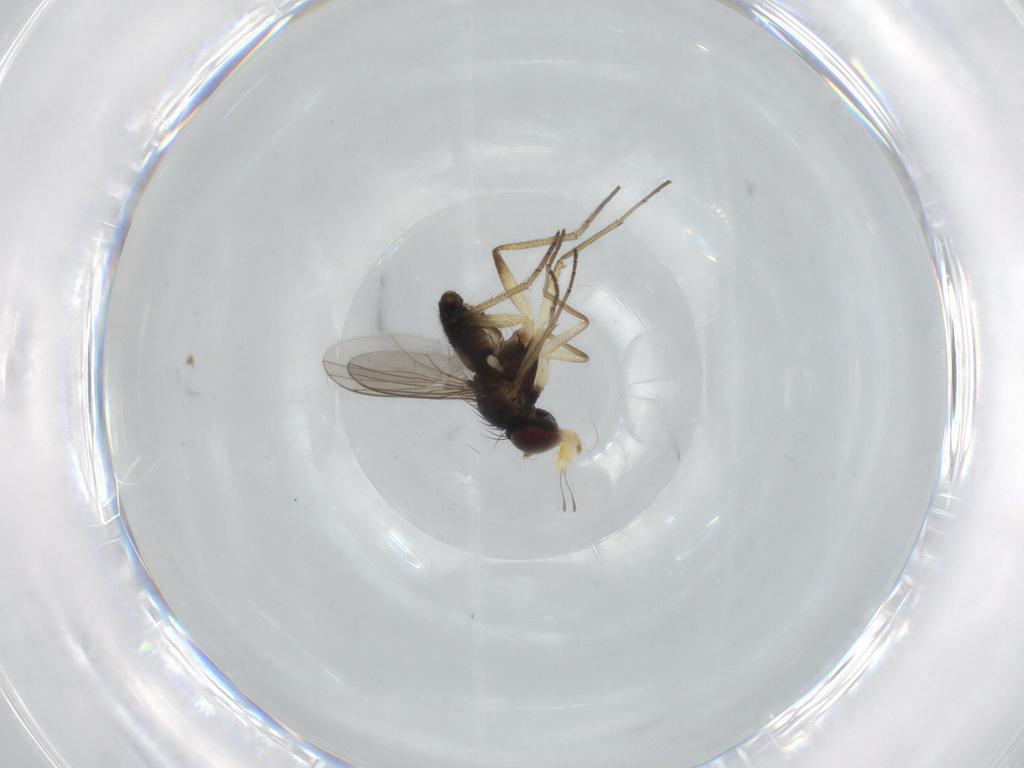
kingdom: Animalia
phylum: Arthropoda
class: Insecta
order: Diptera
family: Dolichopodidae
